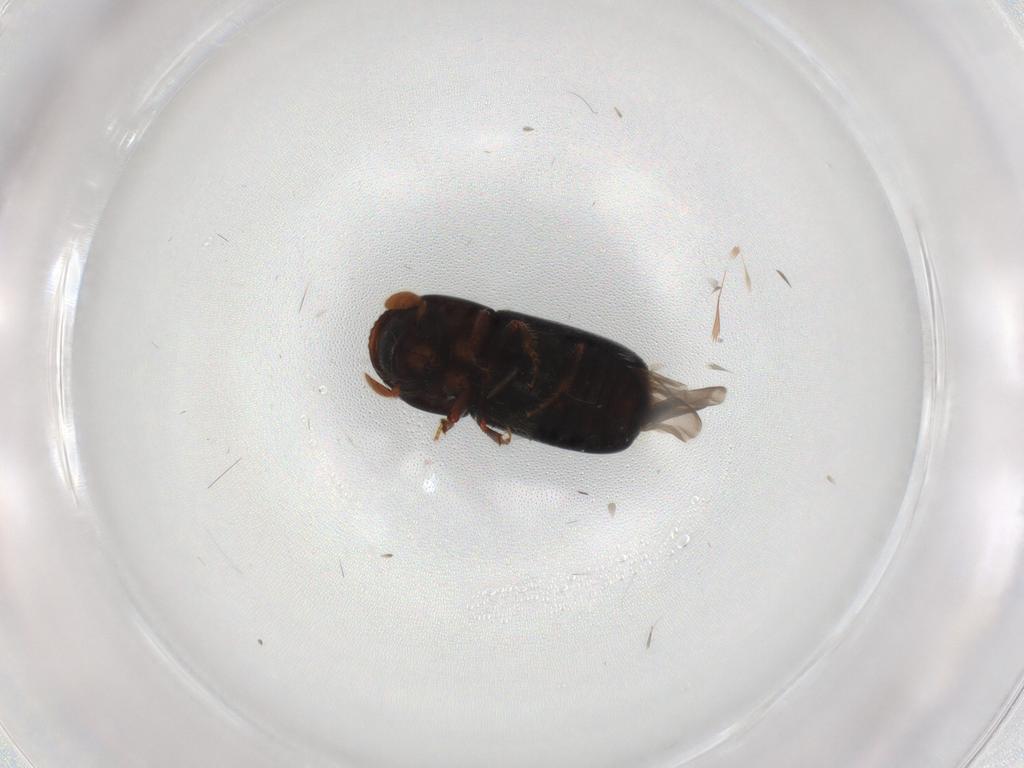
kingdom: Animalia
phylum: Arthropoda
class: Insecta
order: Coleoptera
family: Curculionidae
